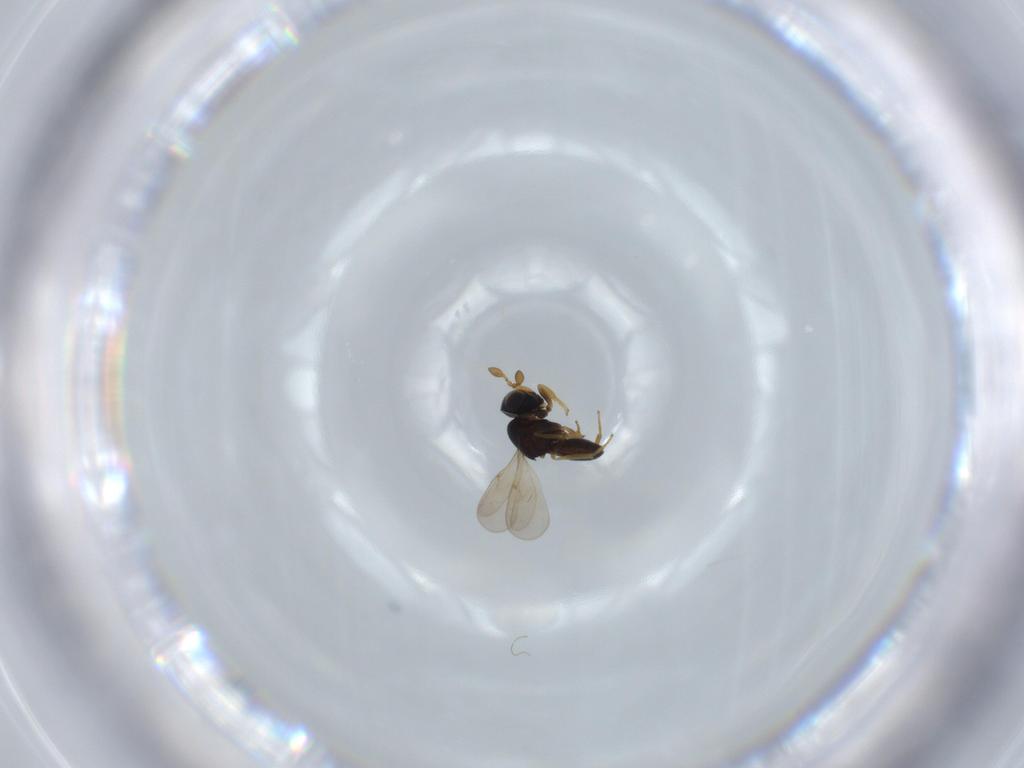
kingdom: Animalia
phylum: Arthropoda
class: Insecta
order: Hymenoptera
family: Scelionidae
